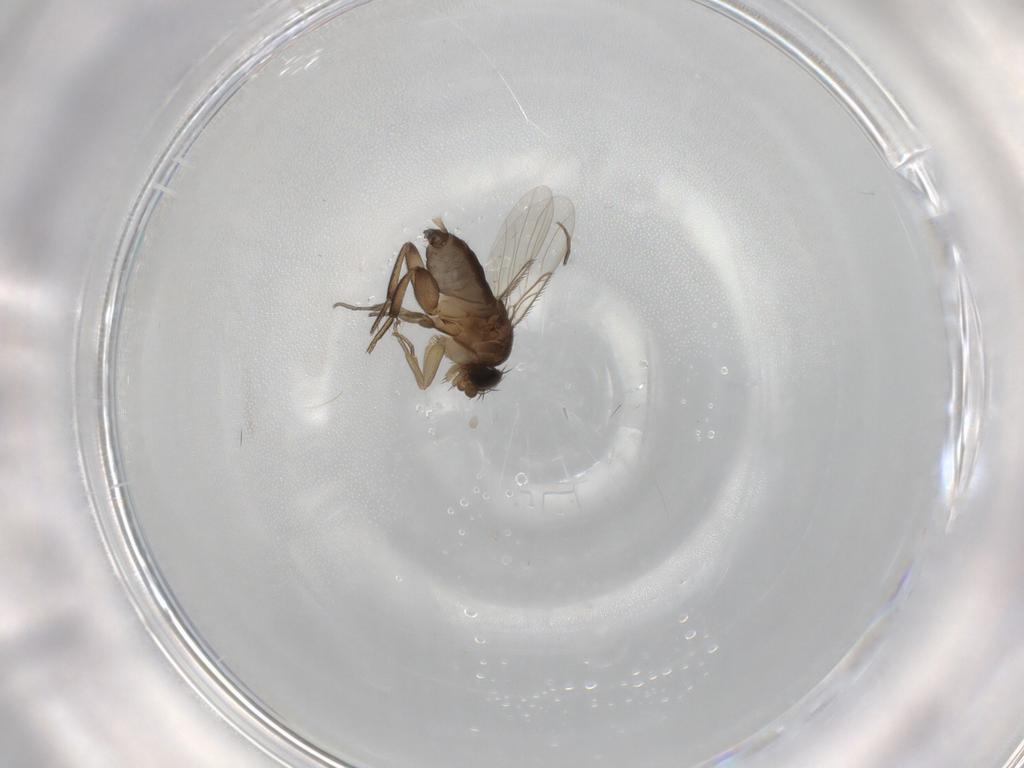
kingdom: Animalia
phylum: Arthropoda
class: Insecta
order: Diptera
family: Phoridae
